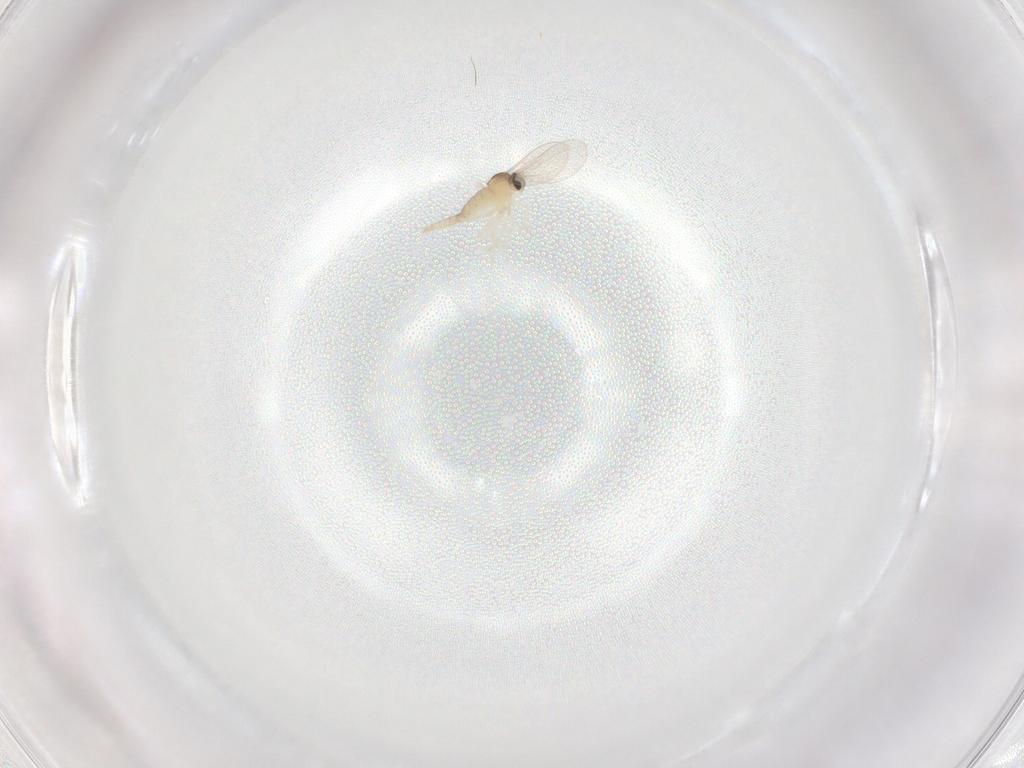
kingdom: Animalia
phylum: Arthropoda
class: Insecta
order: Diptera
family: Cecidomyiidae
